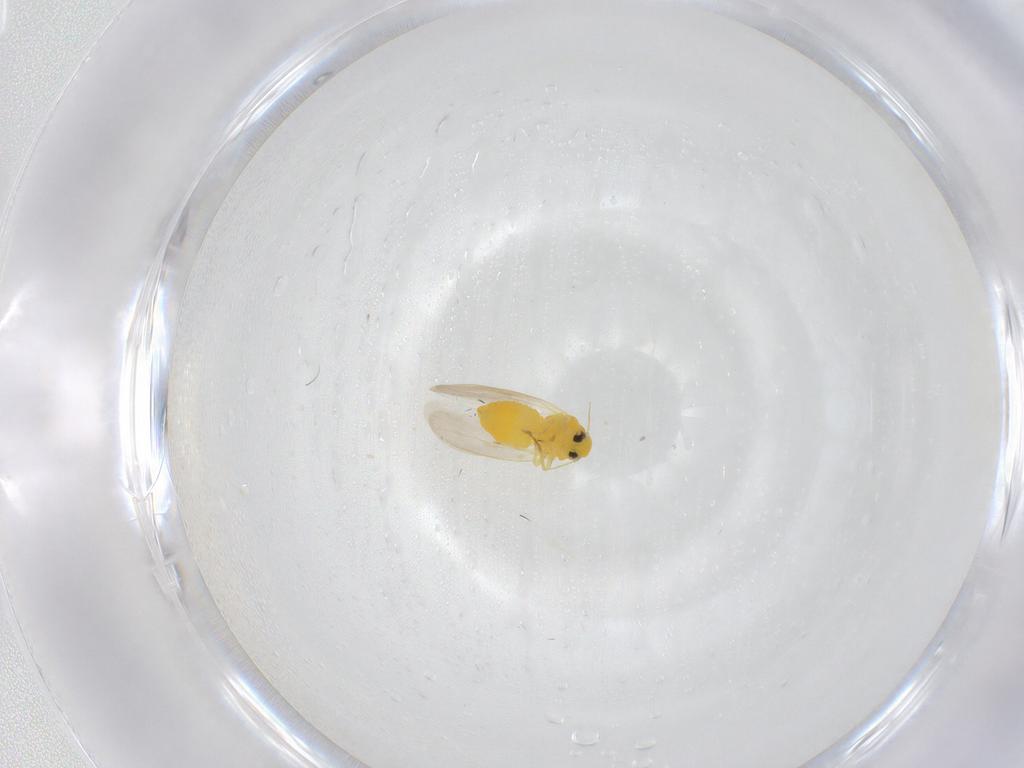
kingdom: Animalia
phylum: Arthropoda
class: Insecta
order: Hemiptera
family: Aleyrodidae
